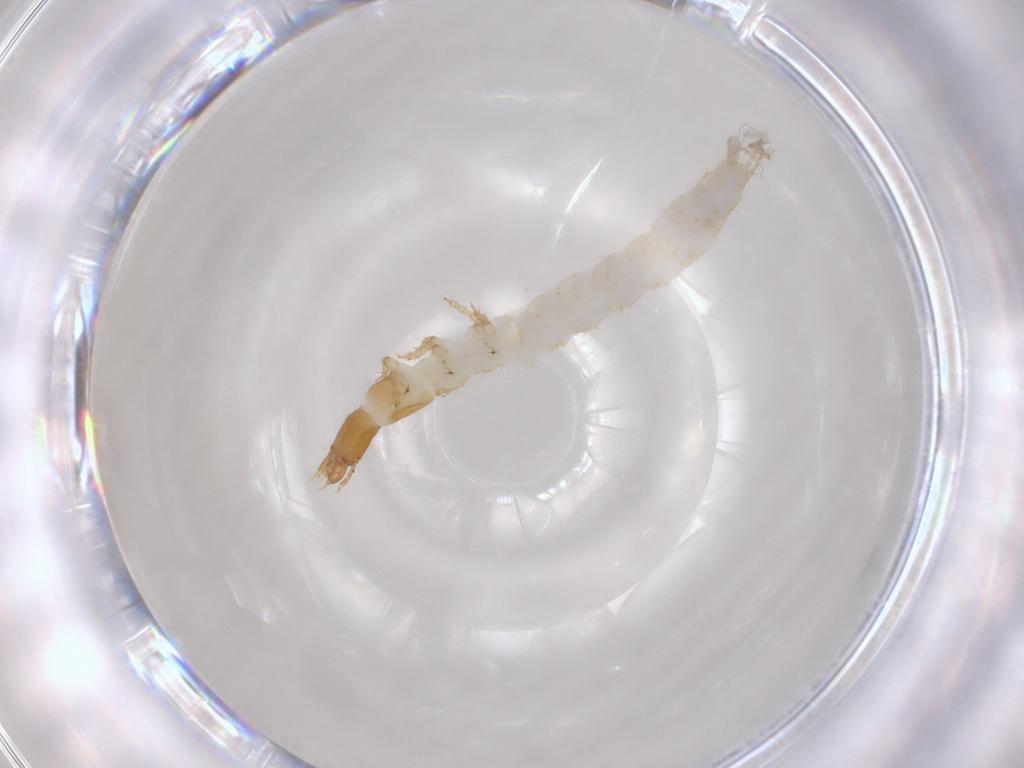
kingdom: Animalia
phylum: Arthropoda
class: Insecta
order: Coleoptera
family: Carabidae
